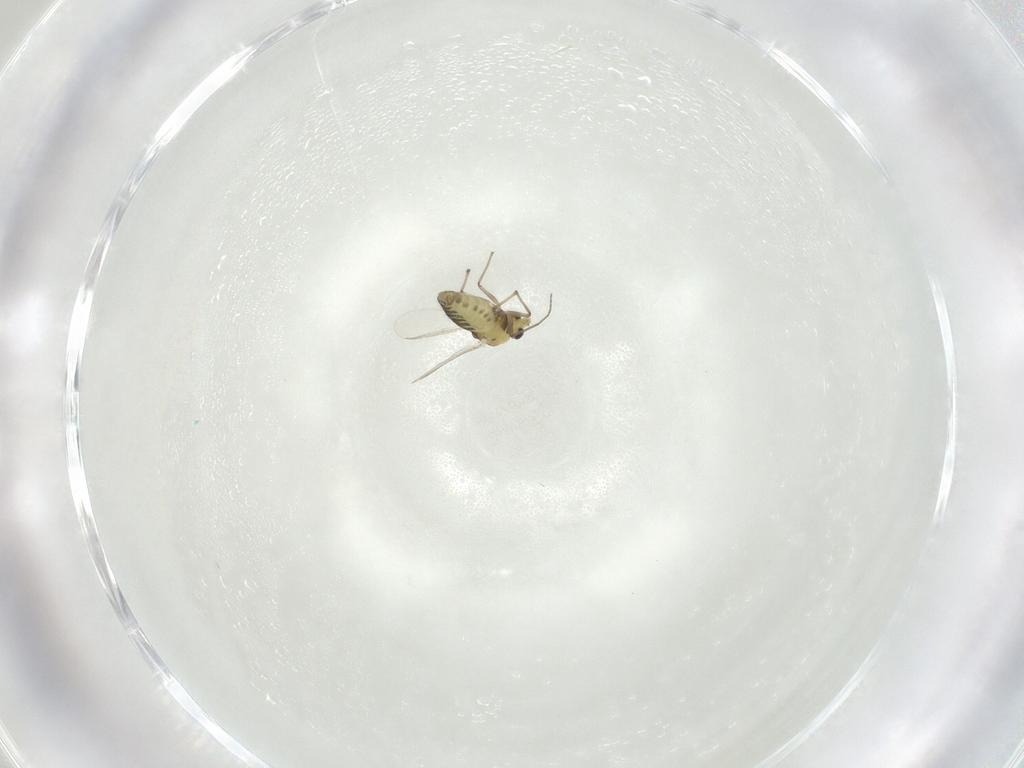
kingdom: Animalia
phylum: Arthropoda
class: Insecta
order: Diptera
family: Chironomidae
